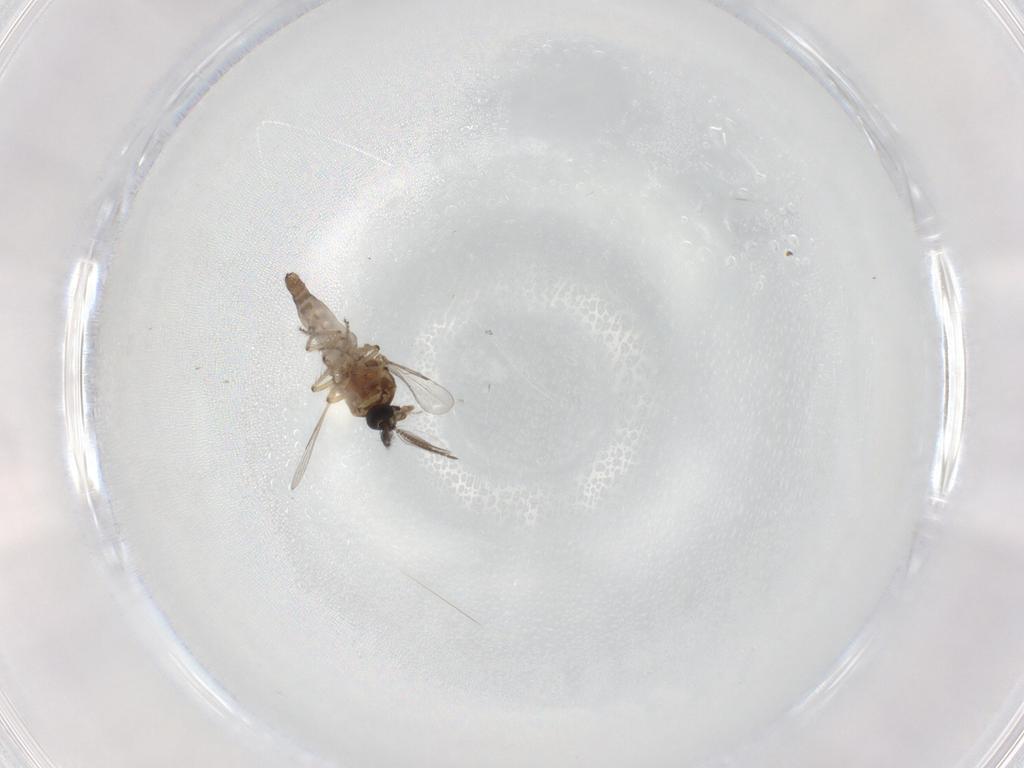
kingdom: Animalia
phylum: Arthropoda
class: Insecta
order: Diptera
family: Ceratopogonidae
